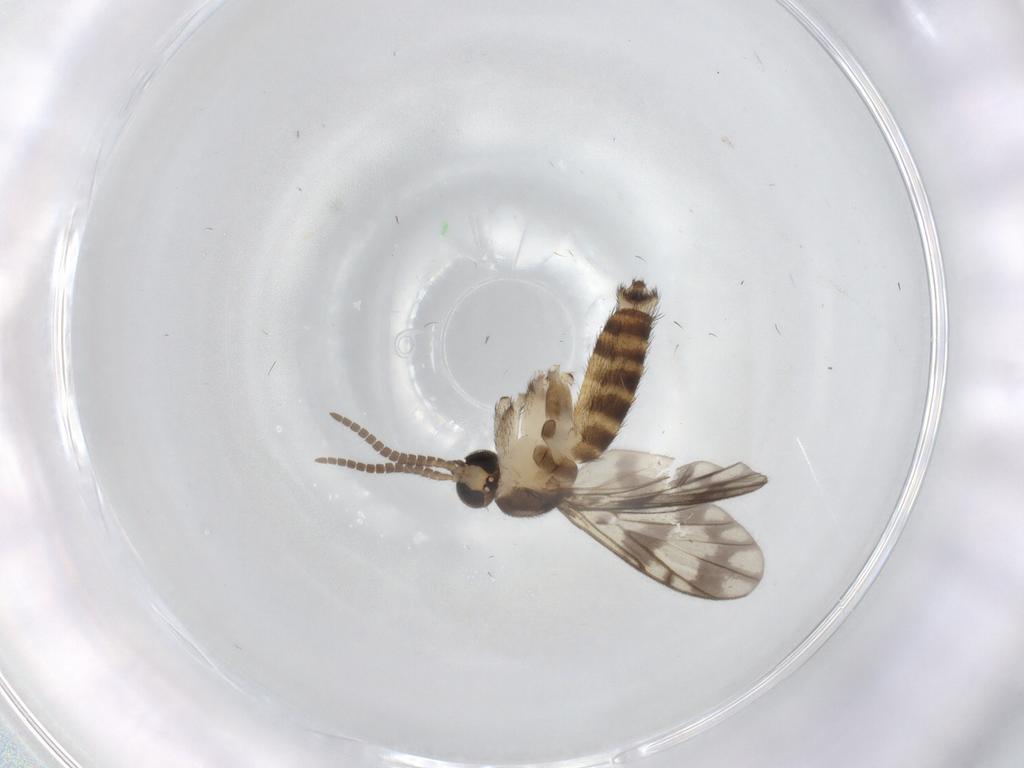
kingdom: Animalia
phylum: Arthropoda
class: Insecta
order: Diptera
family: Cecidomyiidae
